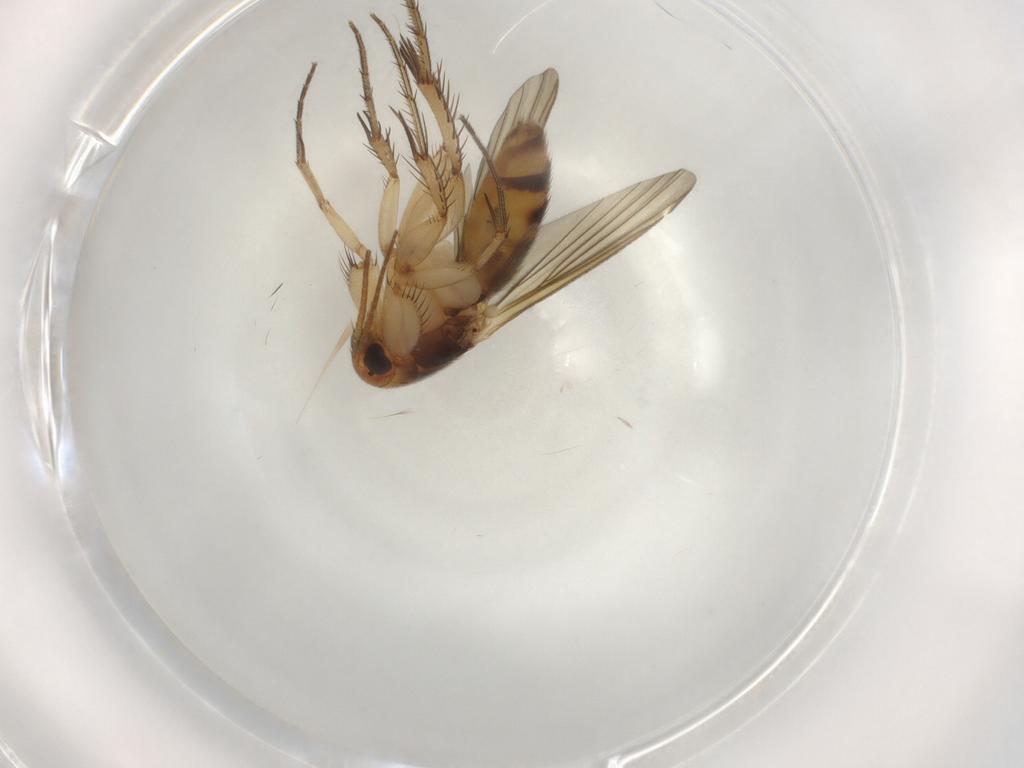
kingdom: Animalia
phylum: Arthropoda
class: Insecta
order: Diptera
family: Mycetophilidae
